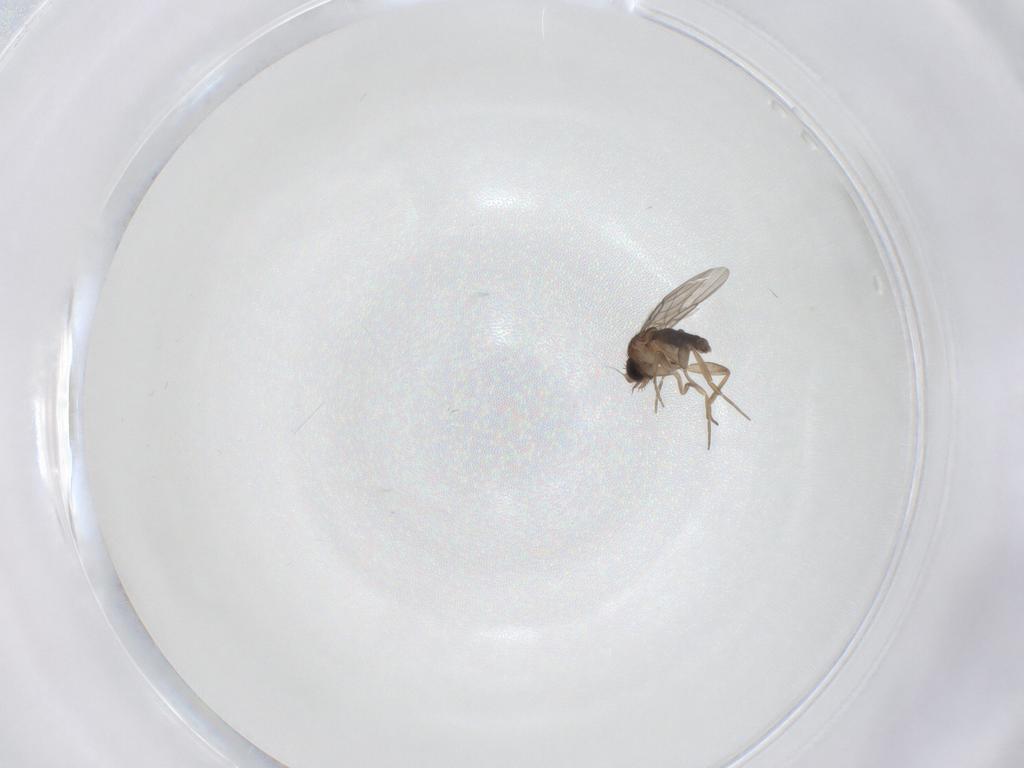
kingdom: Animalia
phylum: Arthropoda
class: Insecta
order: Diptera
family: Phoridae
